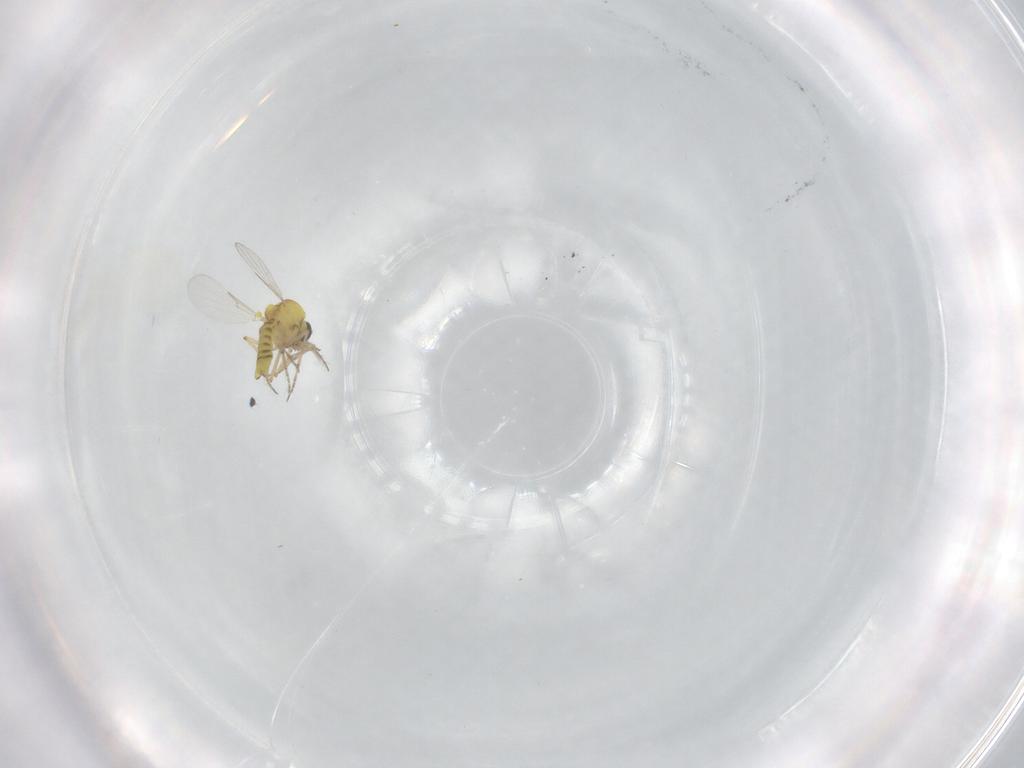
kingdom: Animalia
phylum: Arthropoda
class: Insecta
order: Diptera
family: Ceratopogonidae
